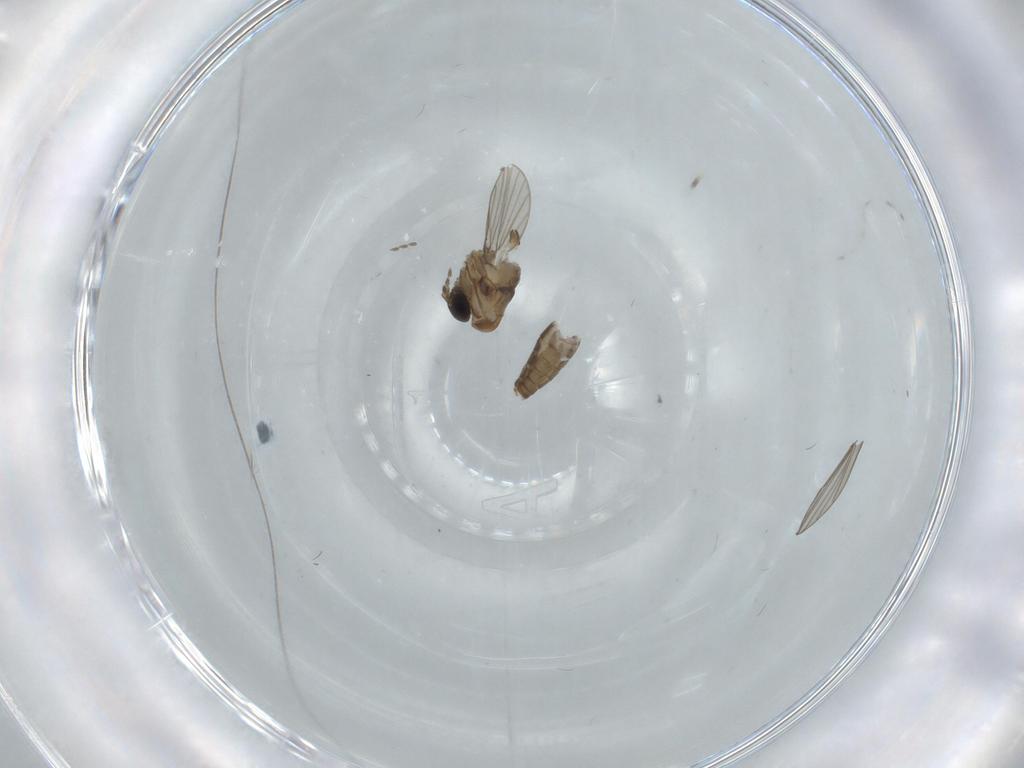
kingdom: Animalia
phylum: Arthropoda
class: Insecta
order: Diptera
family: Psychodidae
